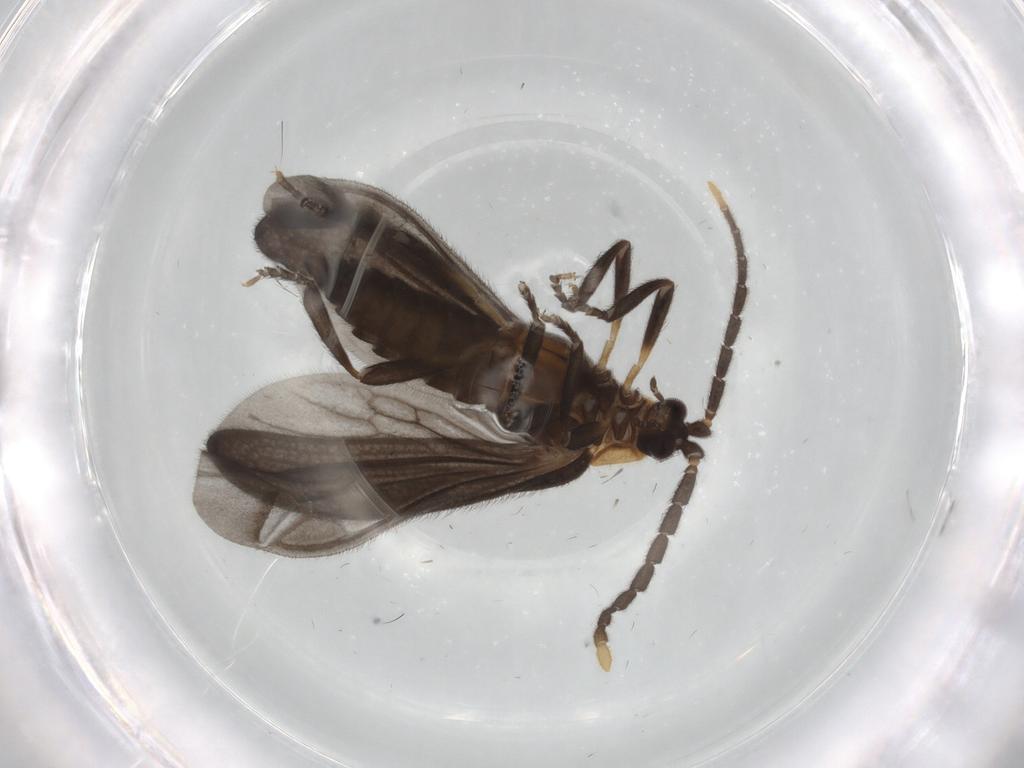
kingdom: Animalia
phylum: Arthropoda
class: Insecta
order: Coleoptera
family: Lycidae
